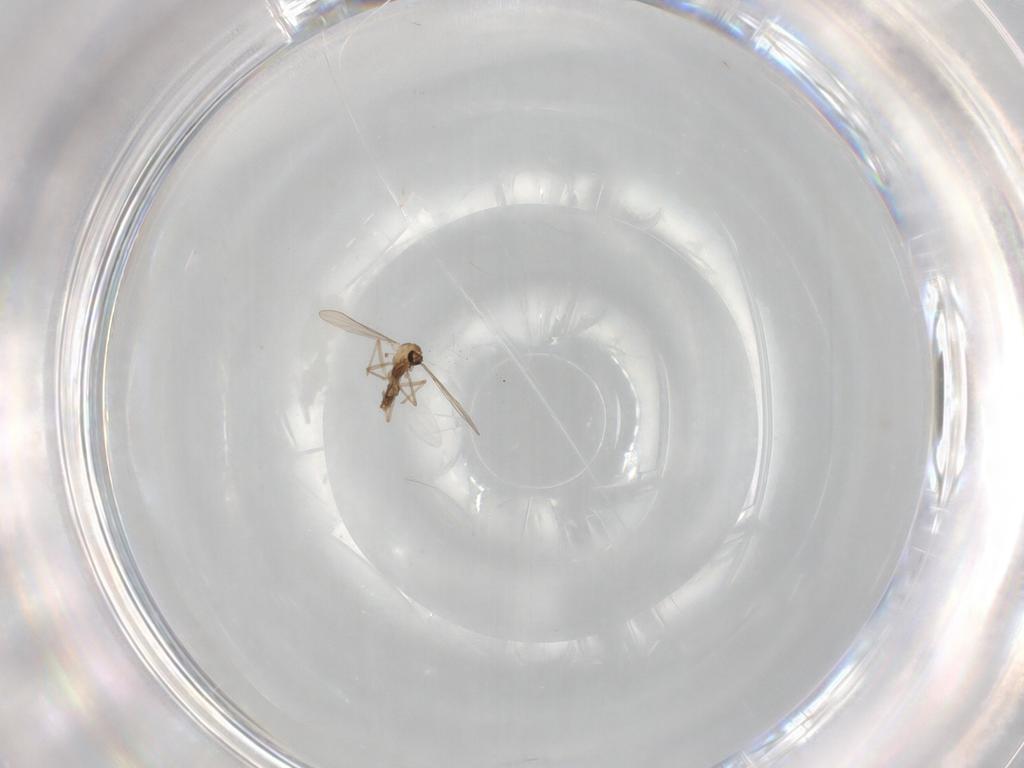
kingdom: Animalia
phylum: Arthropoda
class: Insecta
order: Diptera
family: Chironomidae
